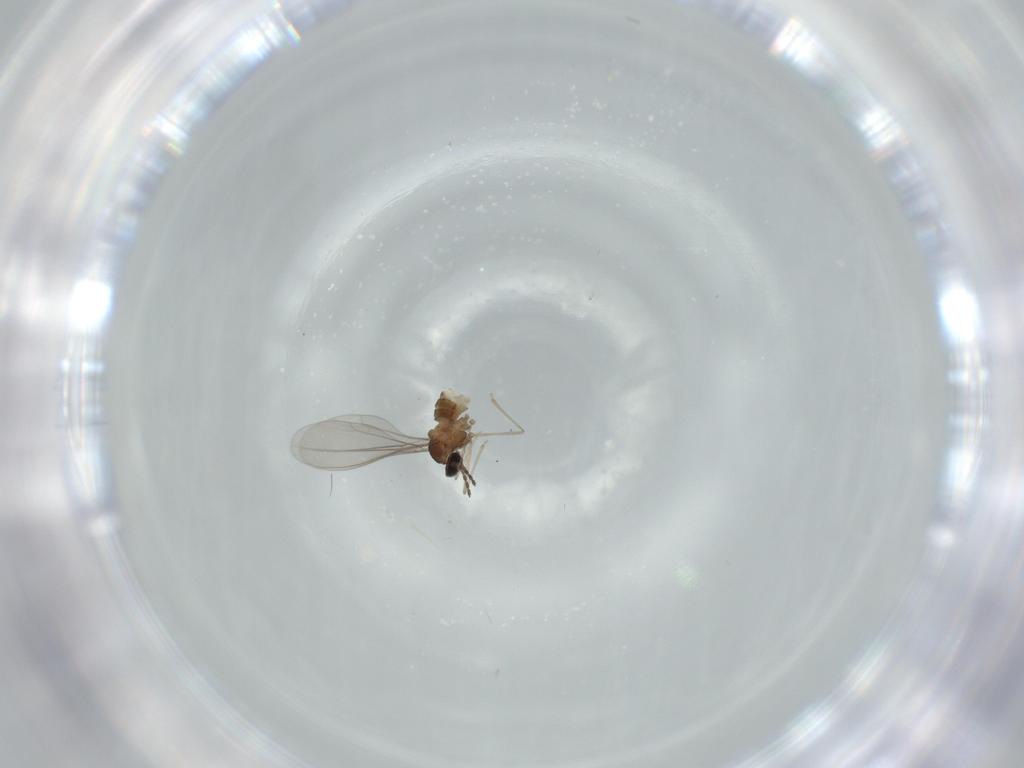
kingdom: Animalia
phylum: Arthropoda
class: Insecta
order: Diptera
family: Cecidomyiidae
